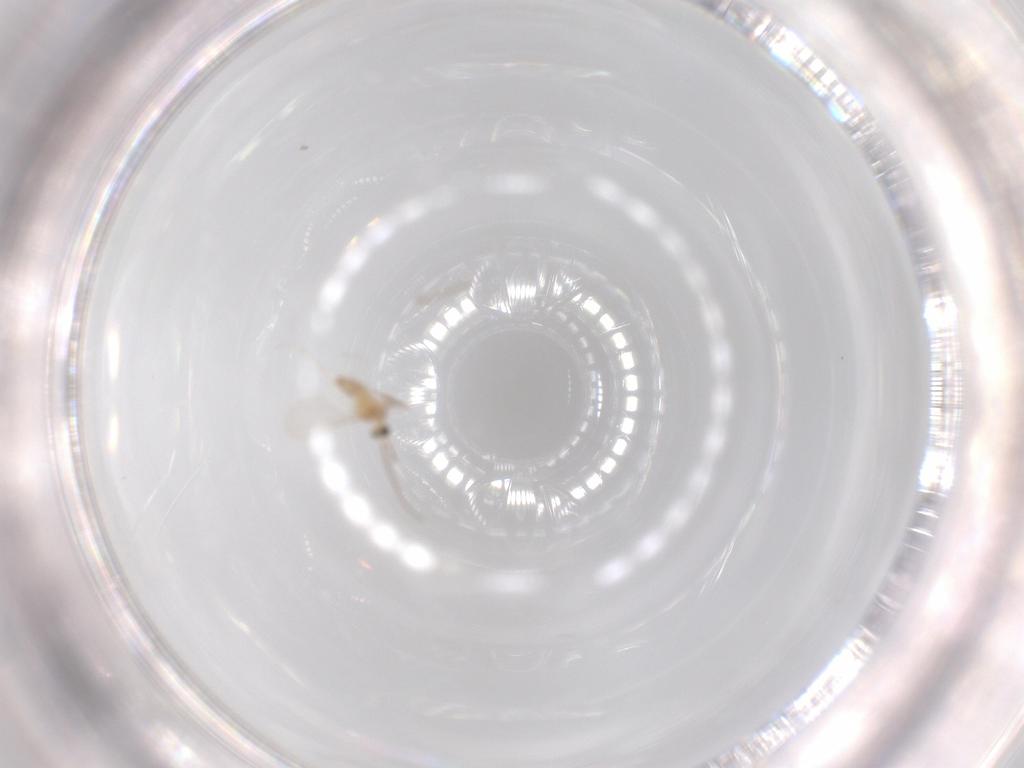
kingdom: Animalia
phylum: Arthropoda
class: Insecta
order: Diptera
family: Cecidomyiidae
